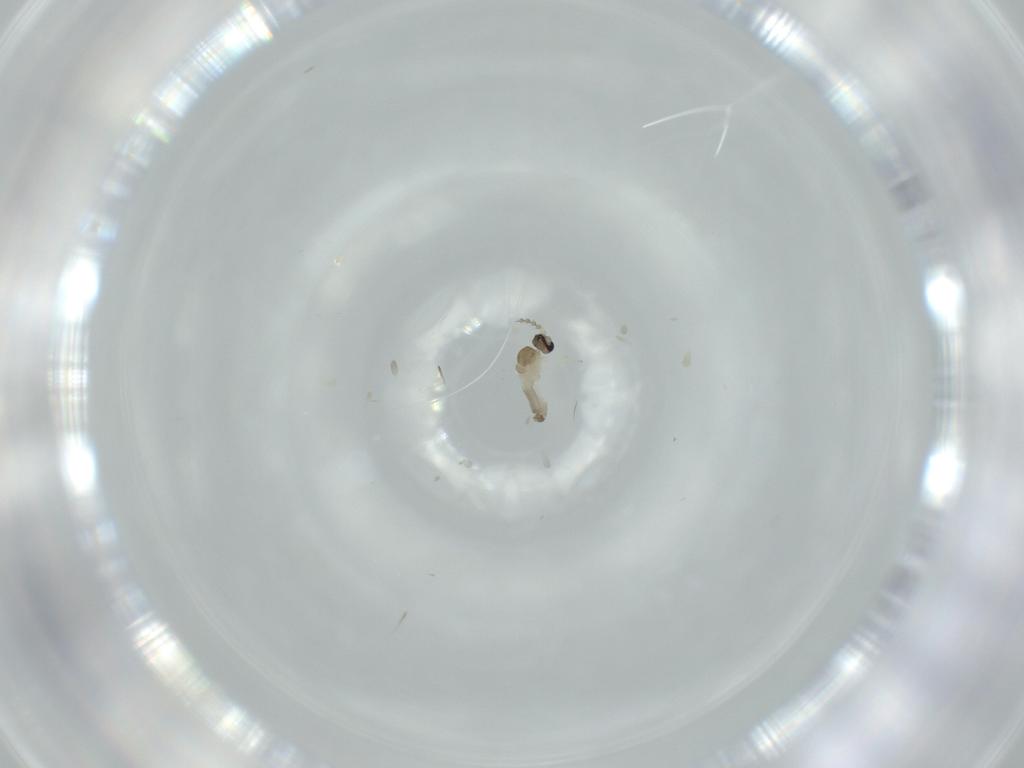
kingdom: Animalia
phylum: Arthropoda
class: Insecta
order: Diptera
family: Cecidomyiidae
